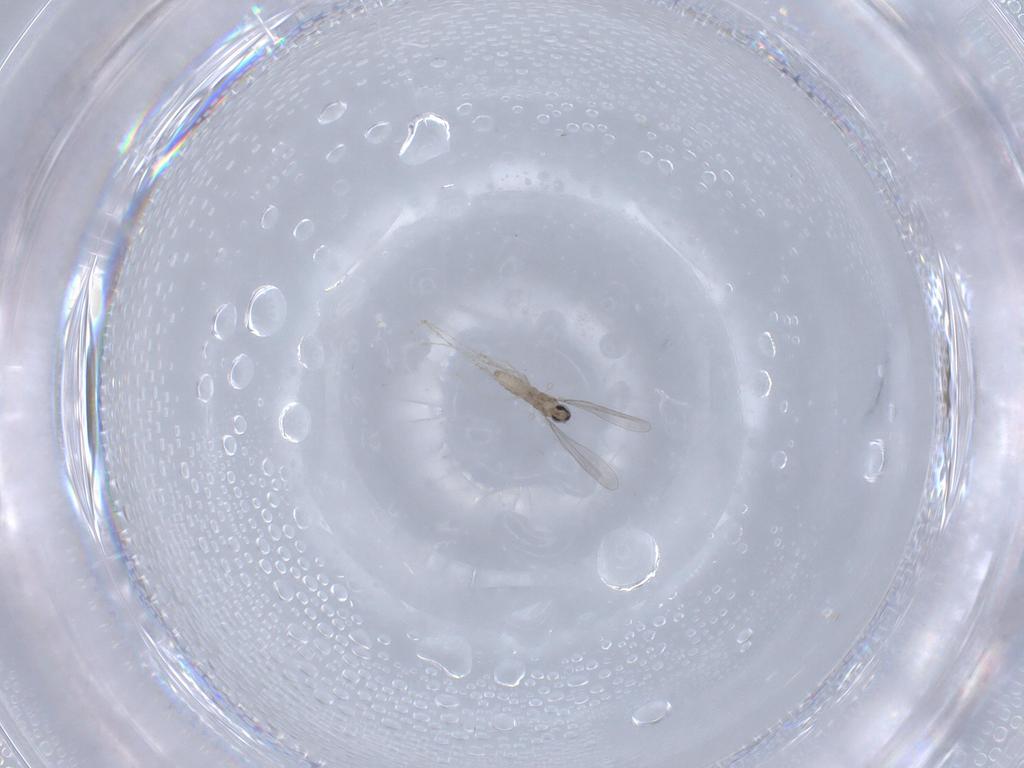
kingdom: Animalia
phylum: Arthropoda
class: Insecta
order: Diptera
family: Cecidomyiidae
